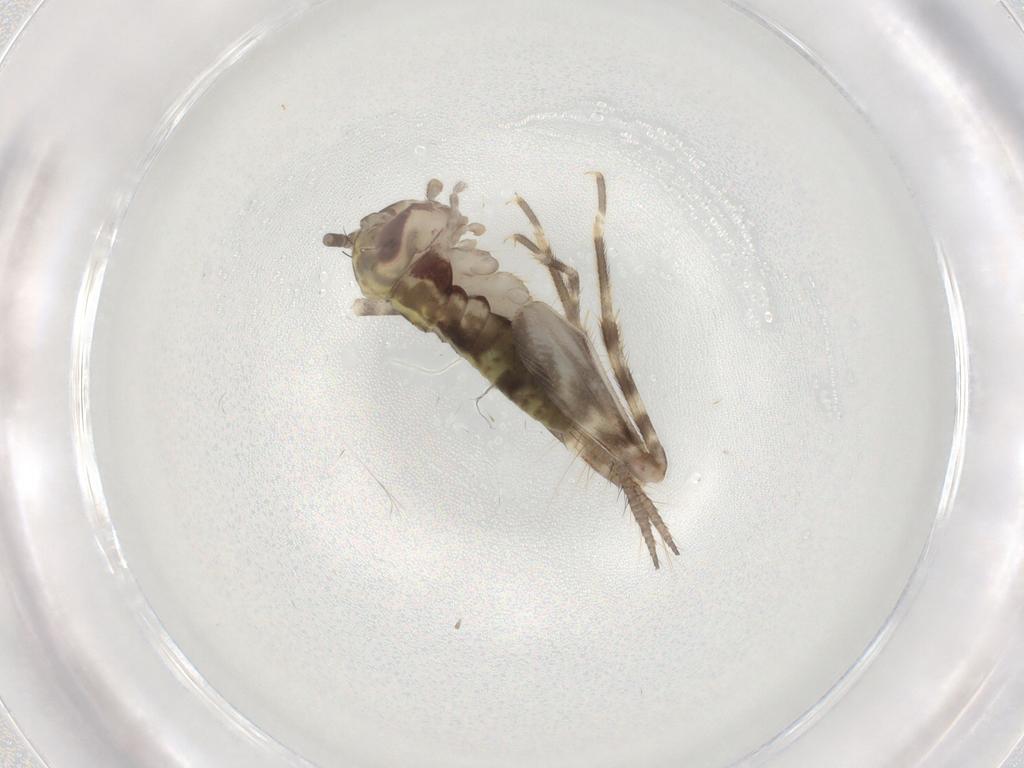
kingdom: Animalia
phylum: Arthropoda
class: Insecta
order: Orthoptera
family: Gryllidae
